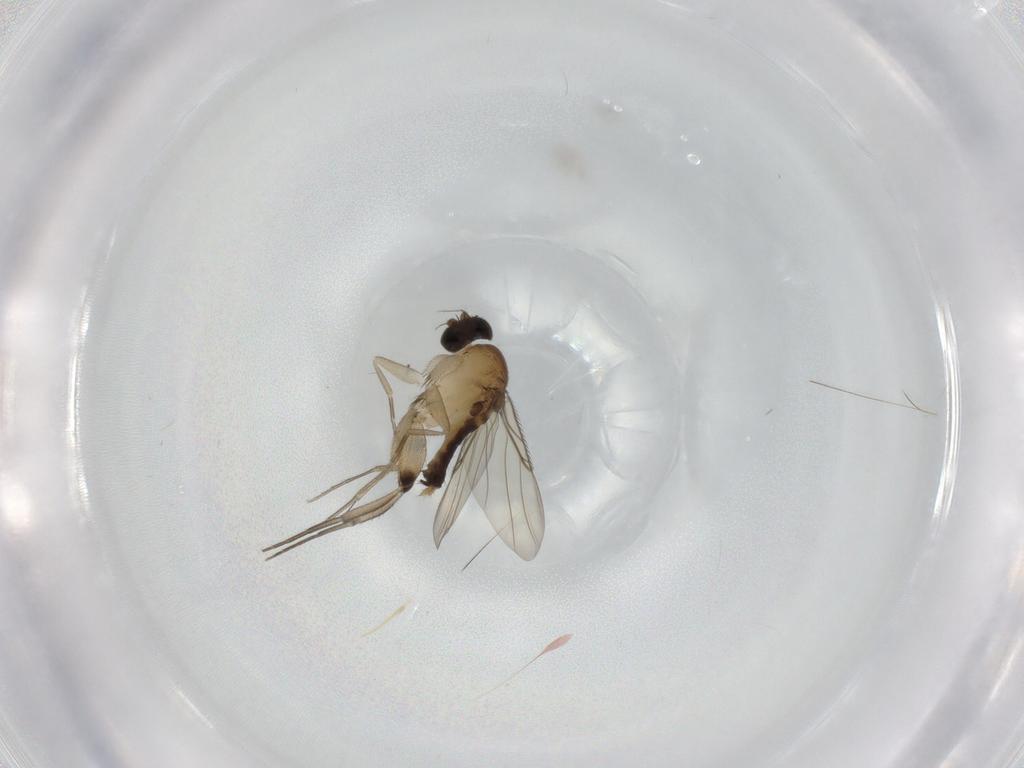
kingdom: Animalia
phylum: Arthropoda
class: Insecta
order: Diptera
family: Phoridae
